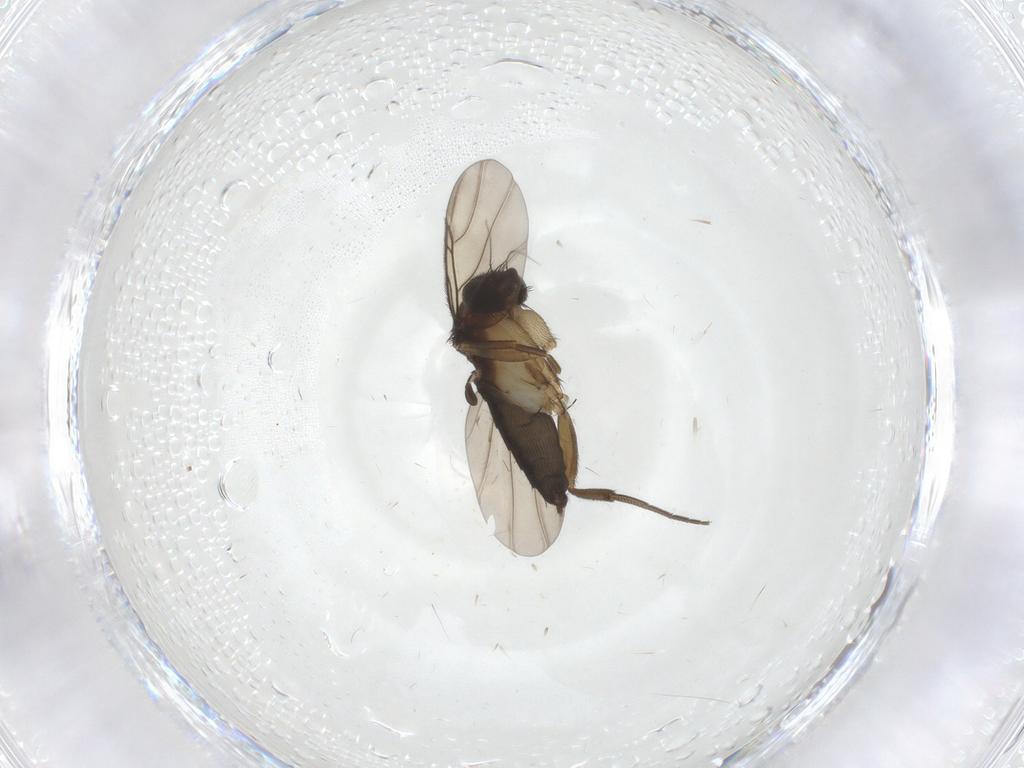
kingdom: Animalia
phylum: Arthropoda
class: Insecta
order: Diptera
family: Phoridae
